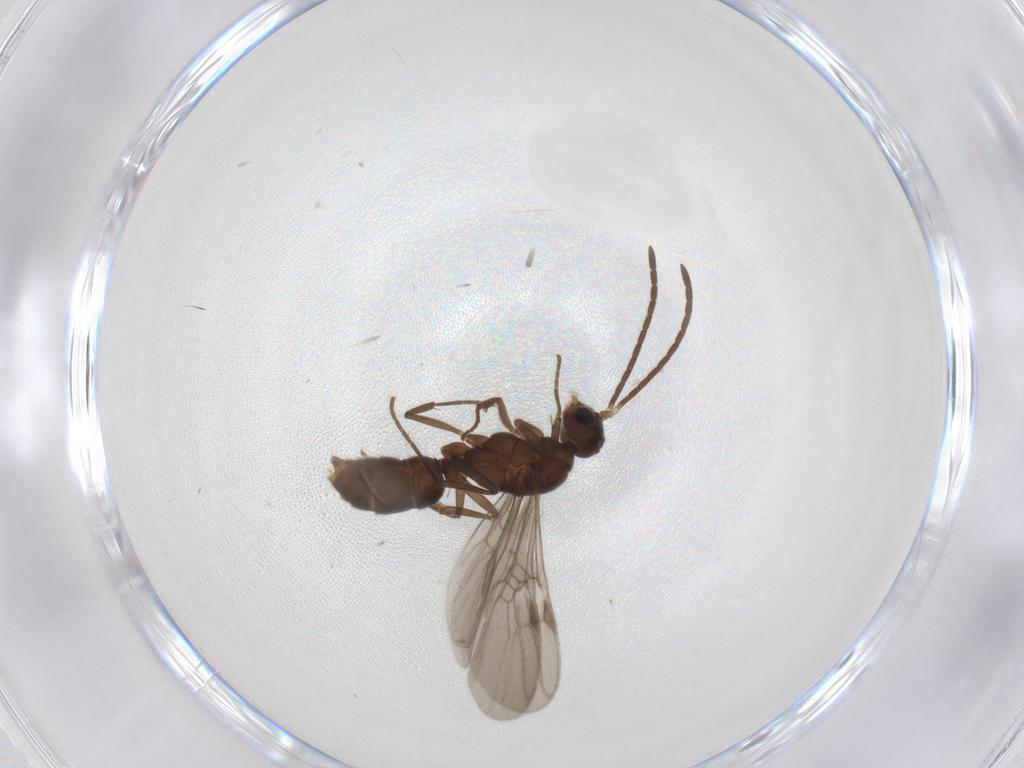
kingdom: Animalia
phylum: Arthropoda
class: Insecta
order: Hymenoptera
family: Formicidae
